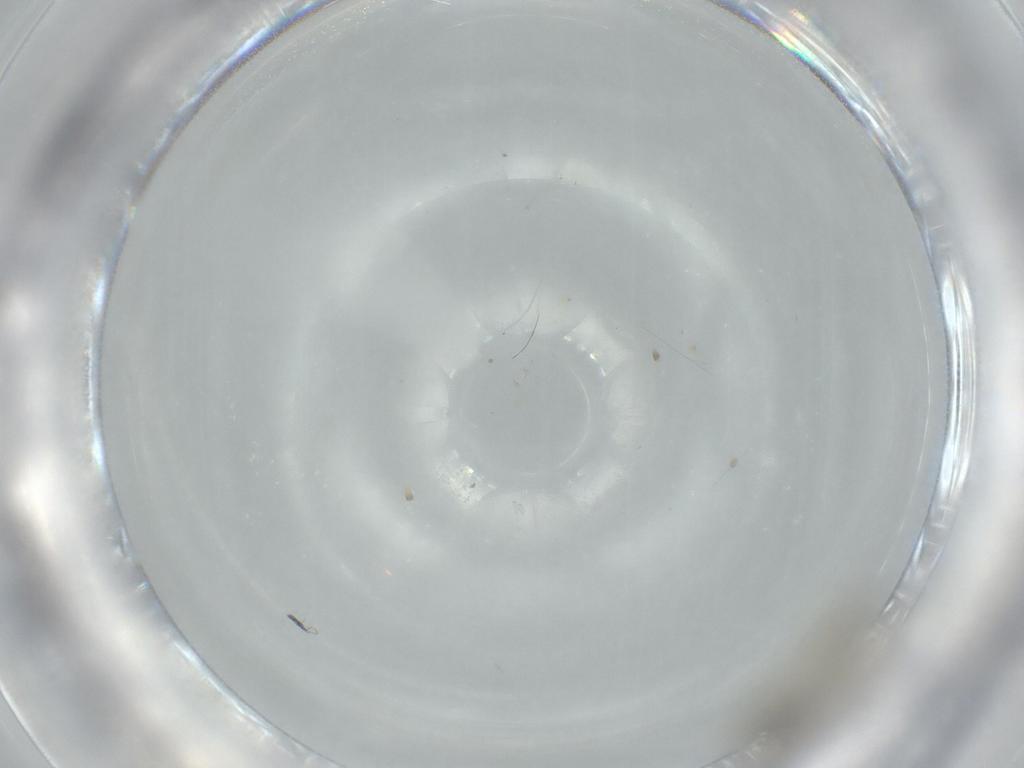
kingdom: Animalia
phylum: Arthropoda
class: Insecta
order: Diptera
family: Cecidomyiidae
